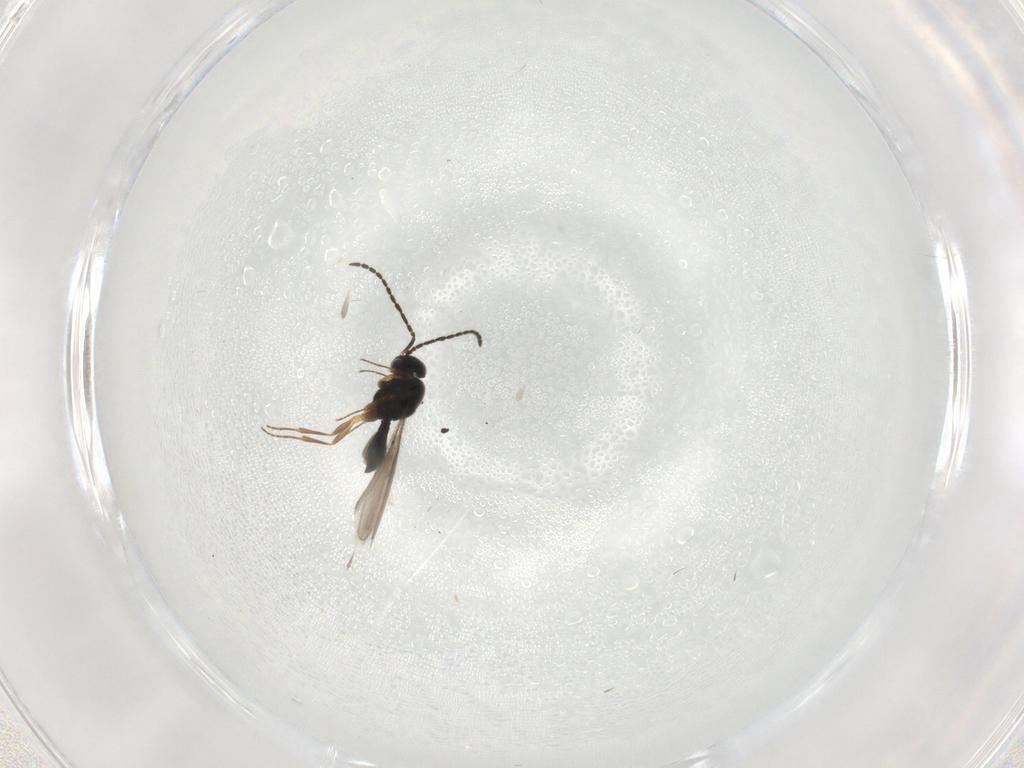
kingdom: Animalia
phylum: Arthropoda
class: Insecta
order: Hymenoptera
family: Scelionidae
